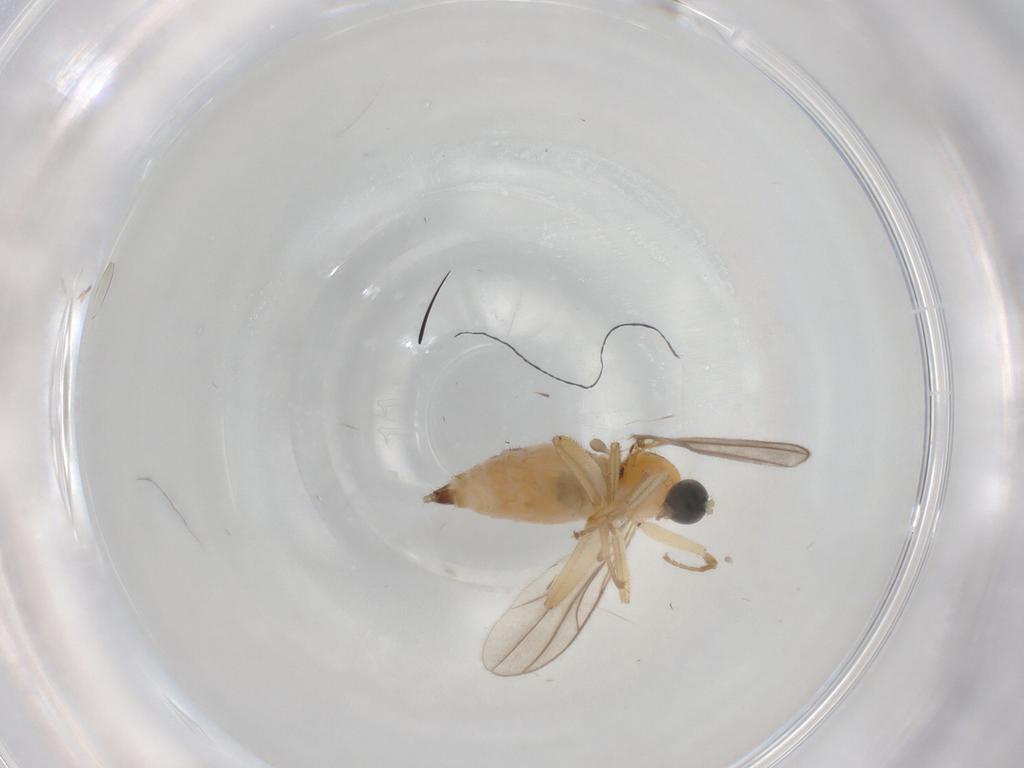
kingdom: Animalia
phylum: Arthropoda
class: Insecta
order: Diptera
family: Hybotidae
